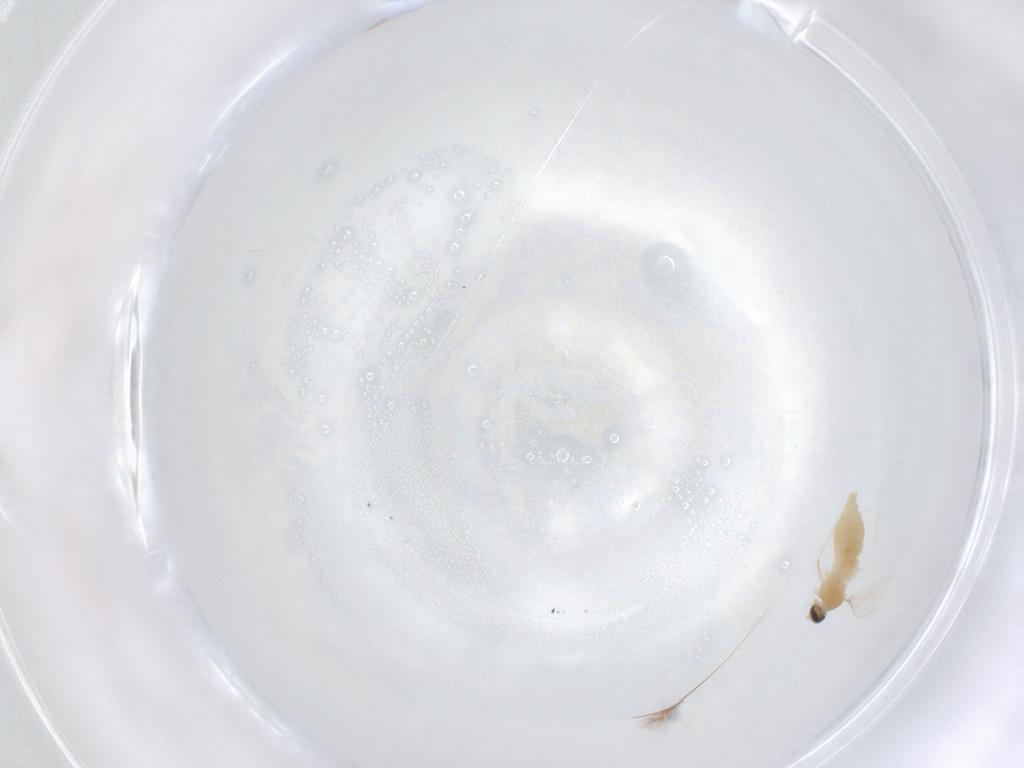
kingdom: Animalia
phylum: Arthropoda
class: Insecta
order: Diptera
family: Cecidomyiidae
